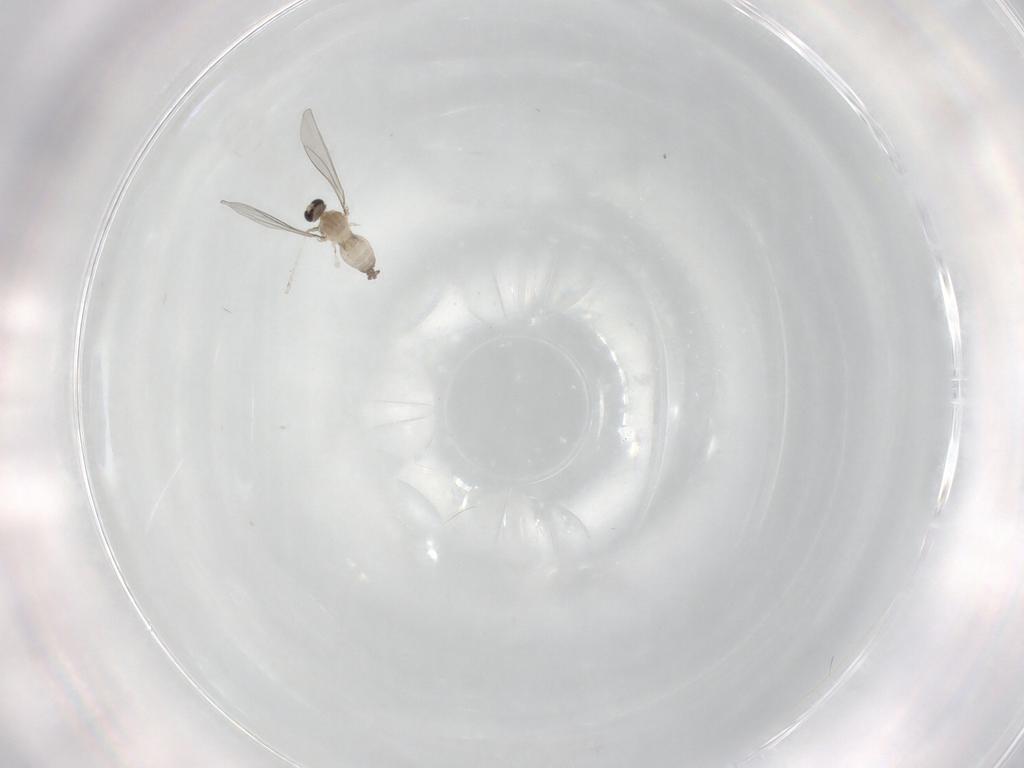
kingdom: Animalia
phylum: Arthropoda
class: Insecta
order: Diptera
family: Cecidomyiidae
